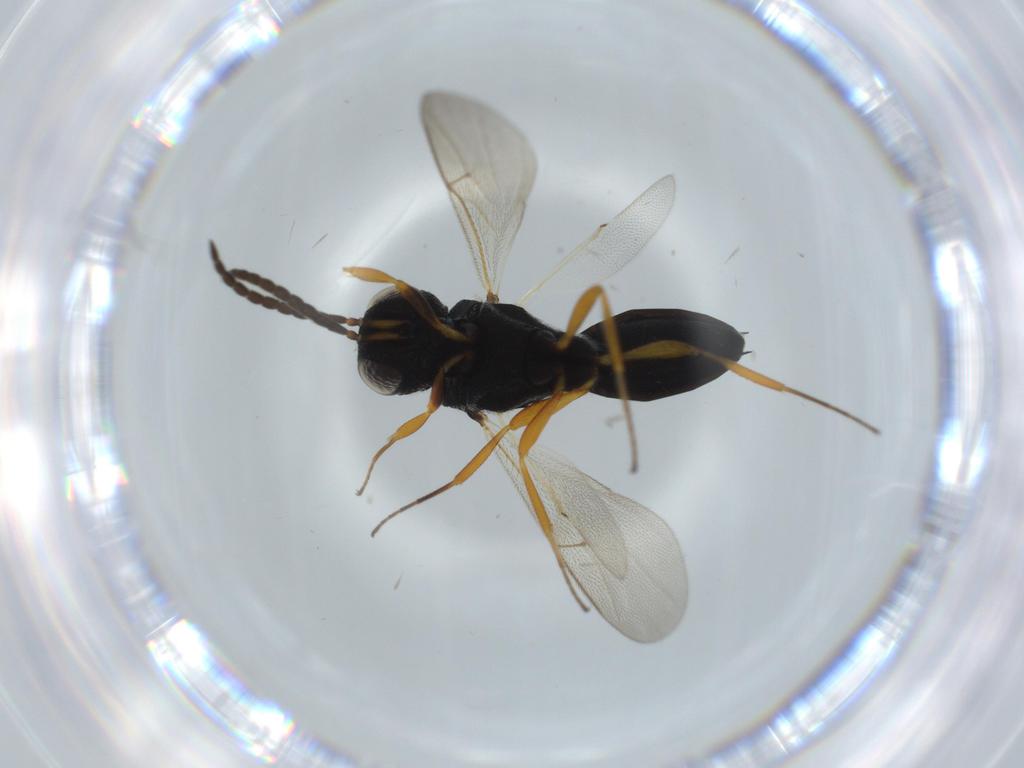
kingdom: Animalia
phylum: Arthropoda
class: Insecta
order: Hymenoptera
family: Scelionidae
